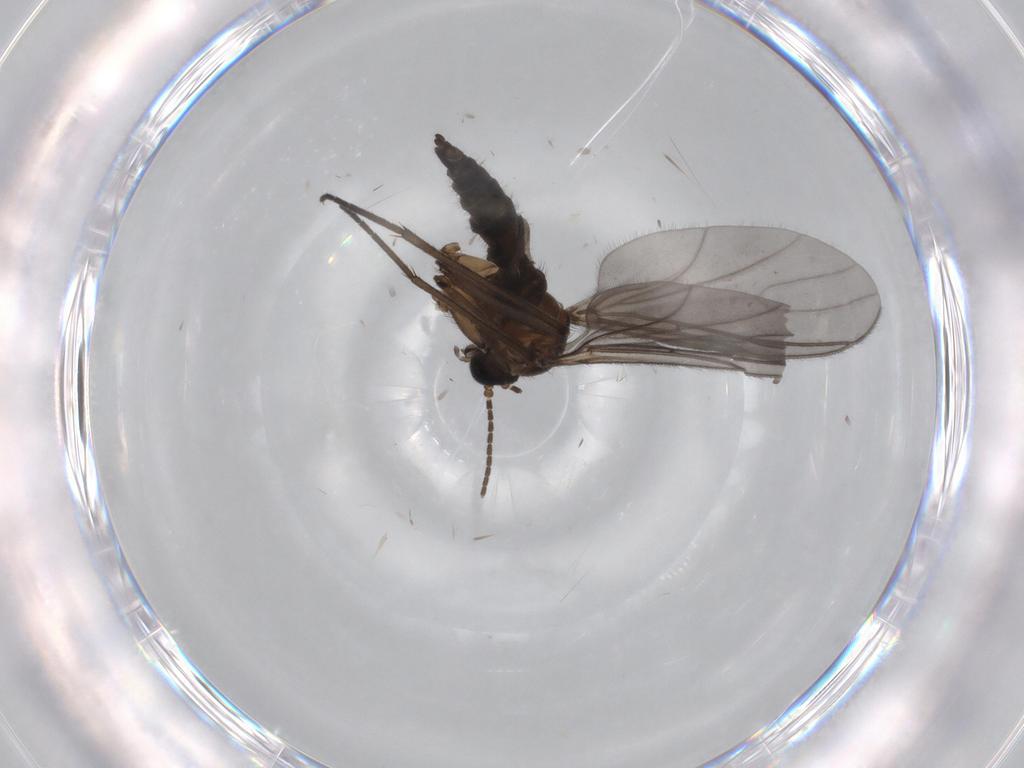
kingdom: Animalia
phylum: Arthropoda
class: Insecta
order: Diptera
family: Sciaridae
